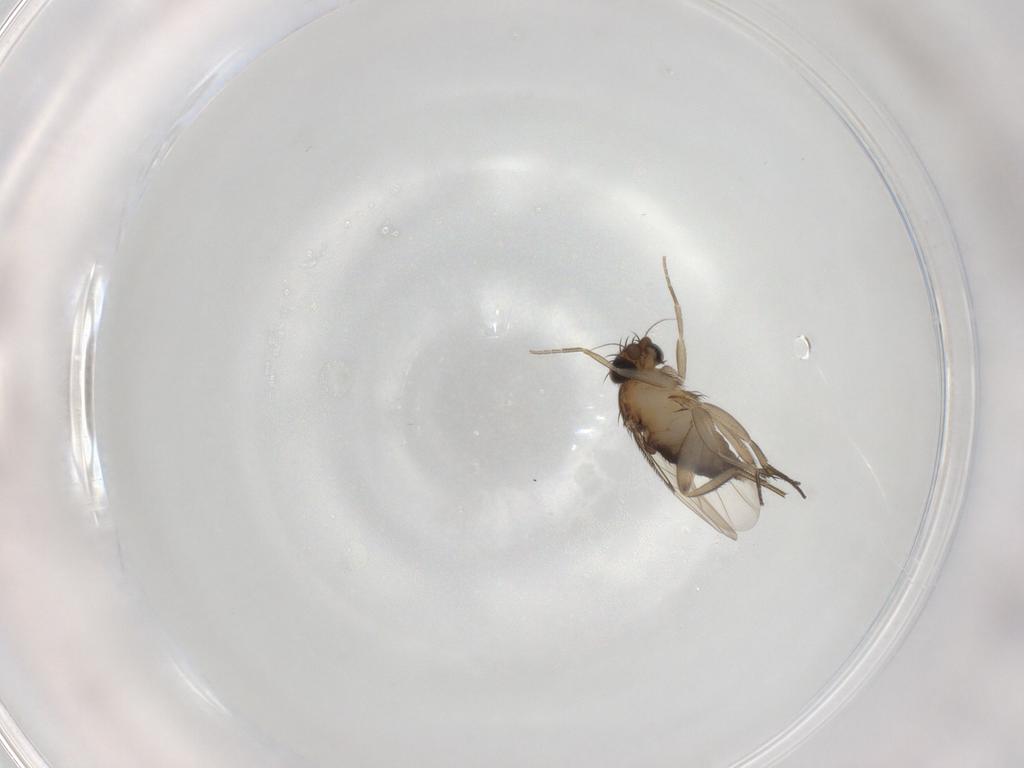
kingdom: Animalia
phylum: Arthropoda
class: Insecta
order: Diptera
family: Phoridae
